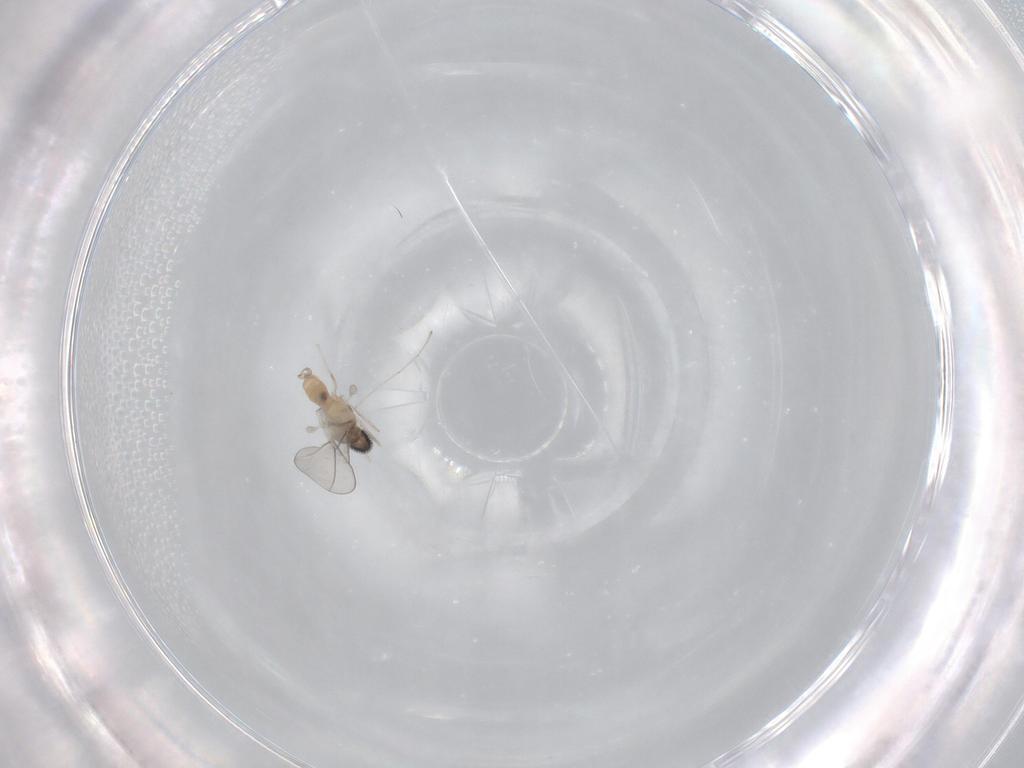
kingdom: Animalia
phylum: Arthropoda
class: Insecta
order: Diptera
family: Cecidomyiidae
